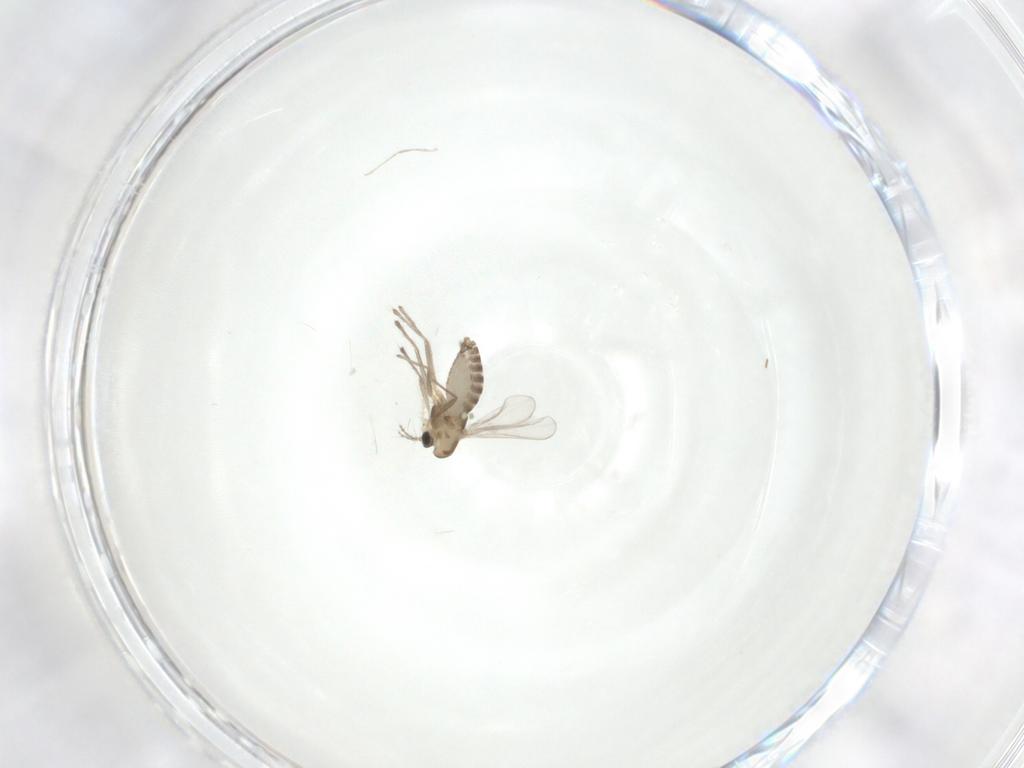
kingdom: Animalia
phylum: Arthropoda
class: Insecta
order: Diptera
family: Chironomidae
